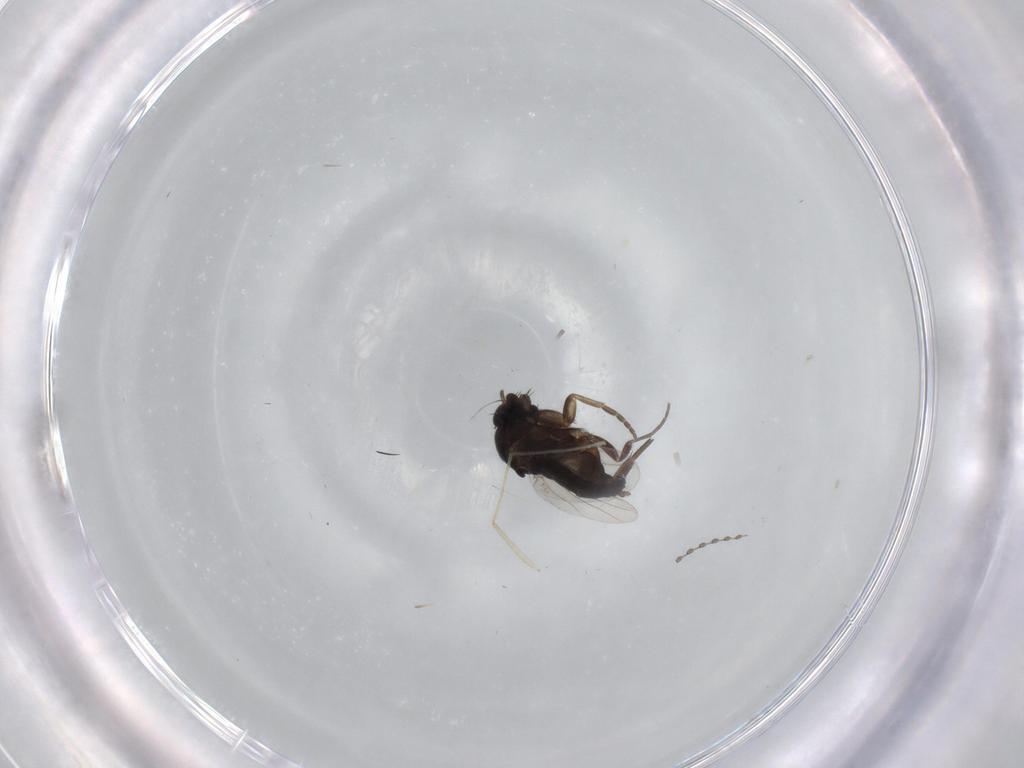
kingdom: Animalia
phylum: Arthropoda
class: Insecta
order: Diptera
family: Phoridae
